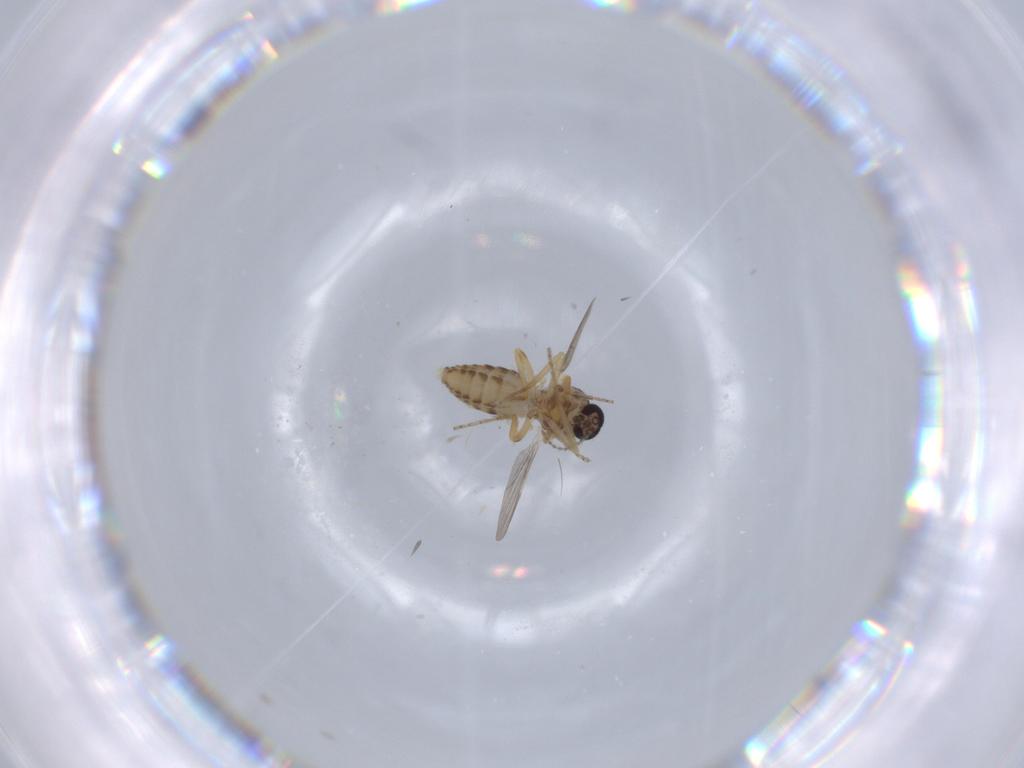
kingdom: Animalia
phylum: Arthropoda
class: Insecta
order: Diptera
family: Ceratopogonidae
